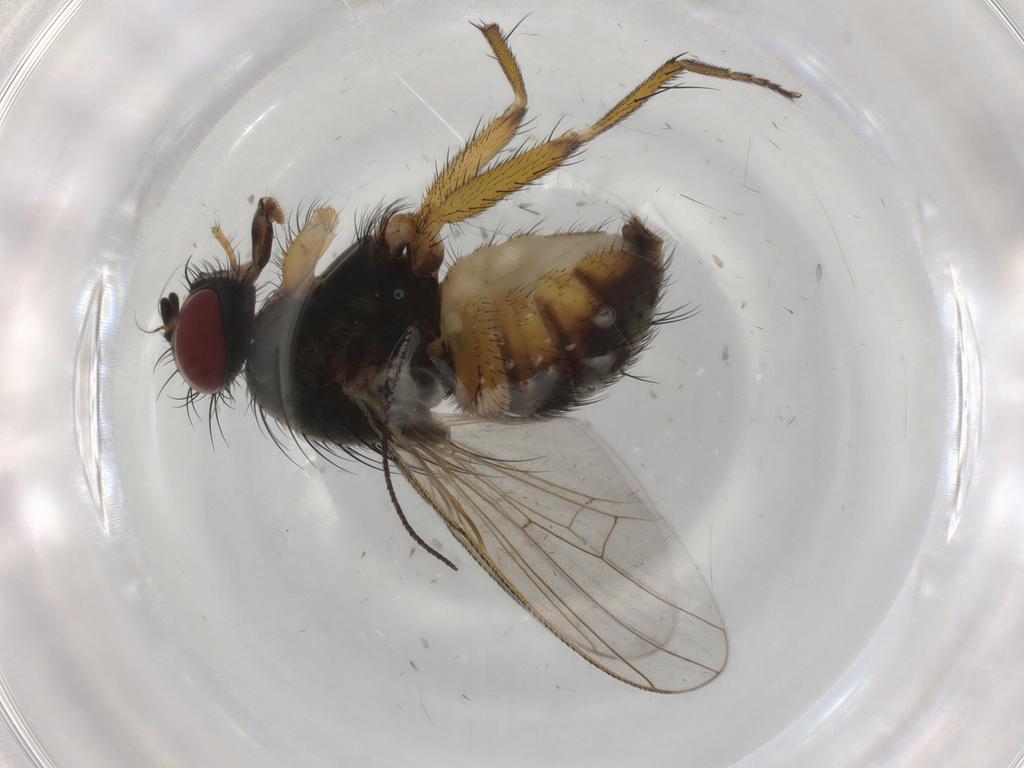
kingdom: Animalia
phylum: Arthropoda
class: Insecta
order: Diptera
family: Muscidae
